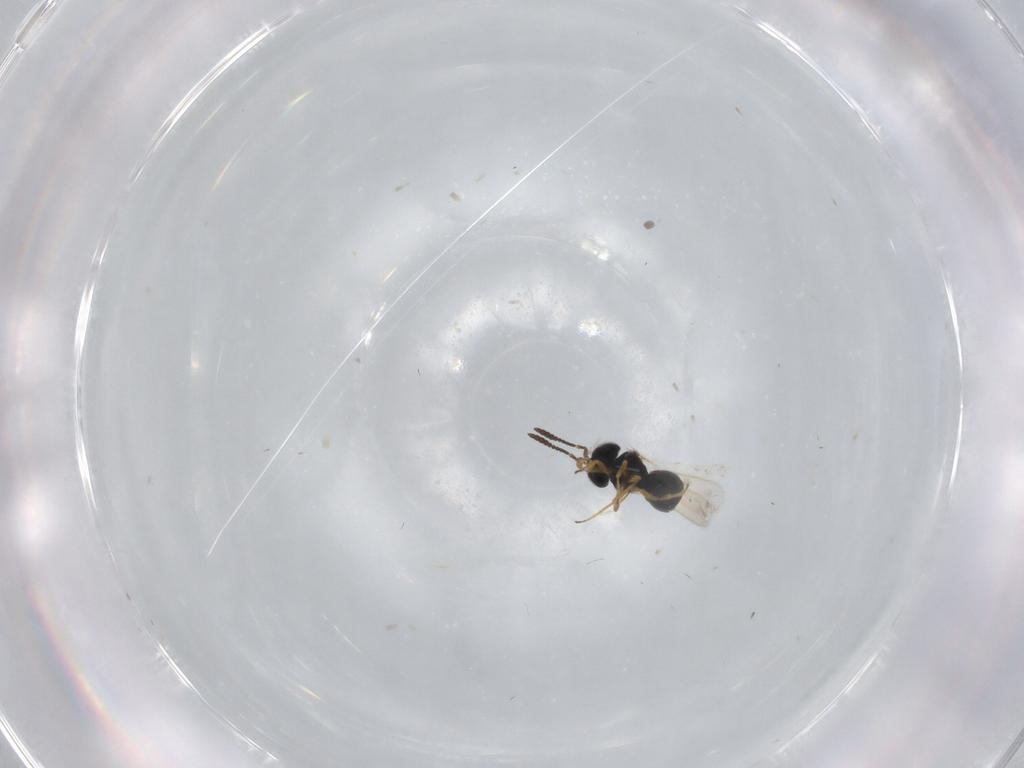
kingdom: Animalia
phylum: Arthropoda
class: Insecta
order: Hymenoptera
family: Scelionidae
